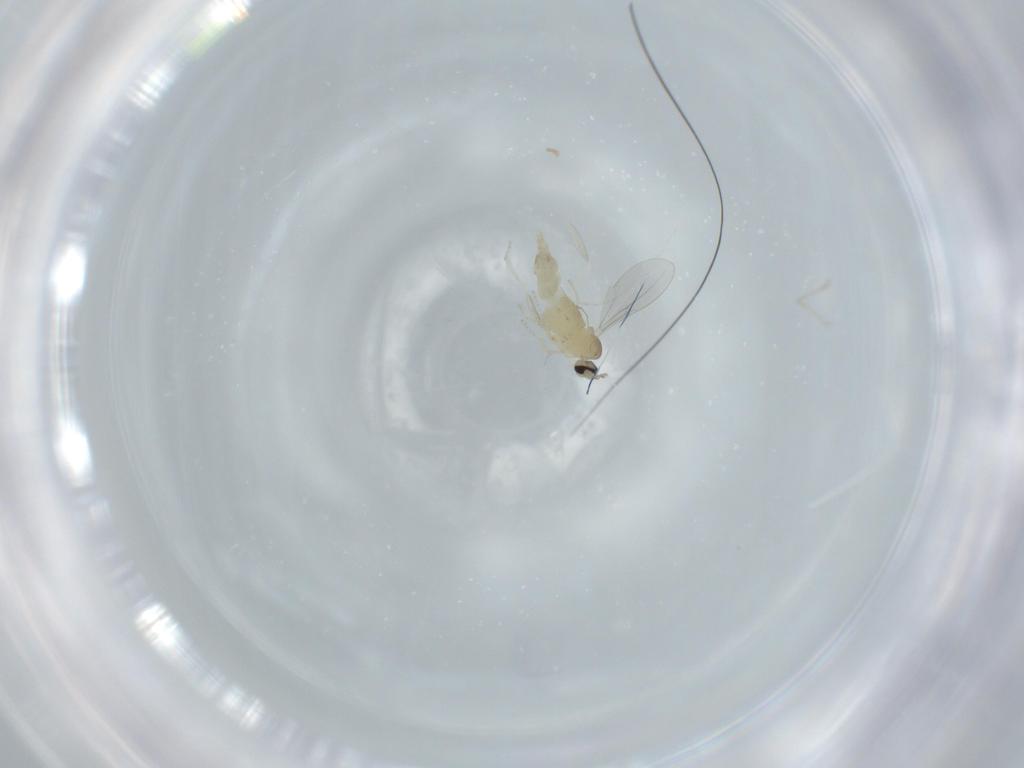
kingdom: Animalia
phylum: Arthropoda
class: Insecta
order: Diptera
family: Cecidomyiidae
